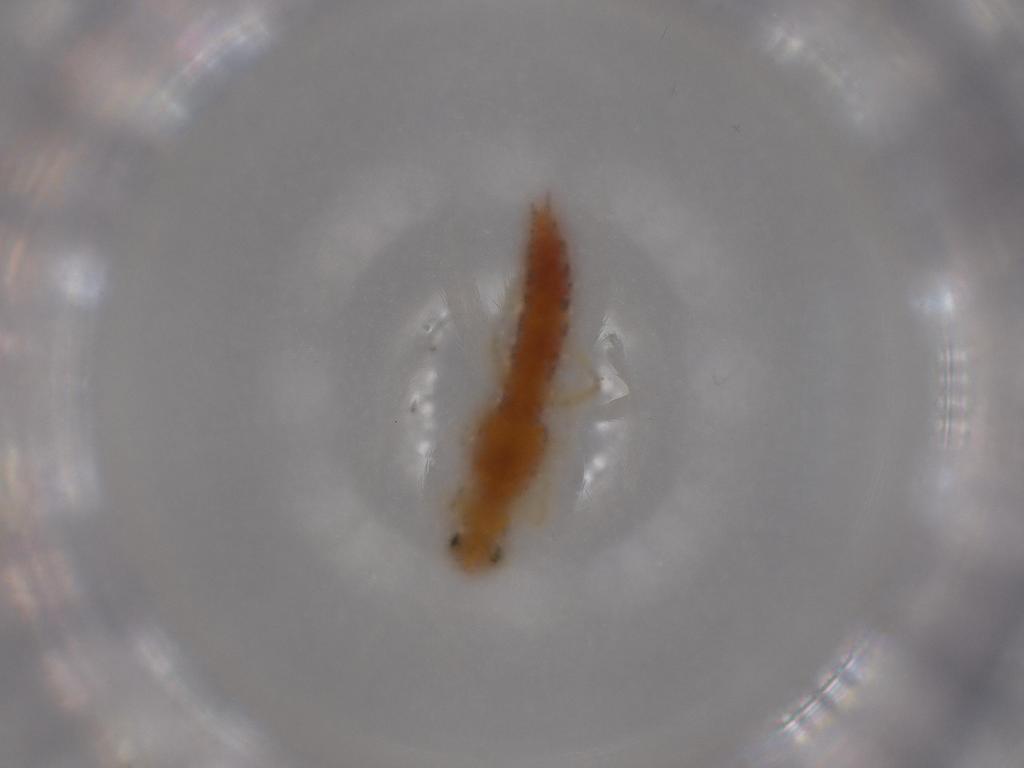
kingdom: Animalia
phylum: Arthropoda
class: Insecta
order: Coleoptera
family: Staphylinidae
